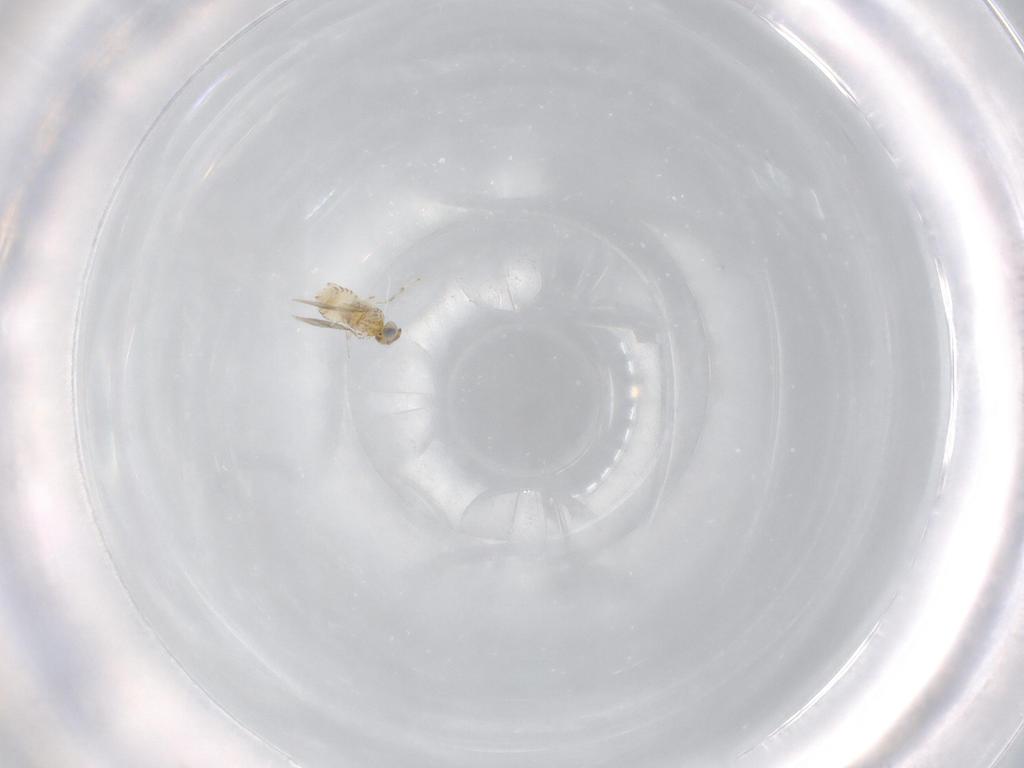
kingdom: Animalia
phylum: Arthropoda
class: Insecta
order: Hymenoptera
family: Aphelinidae
